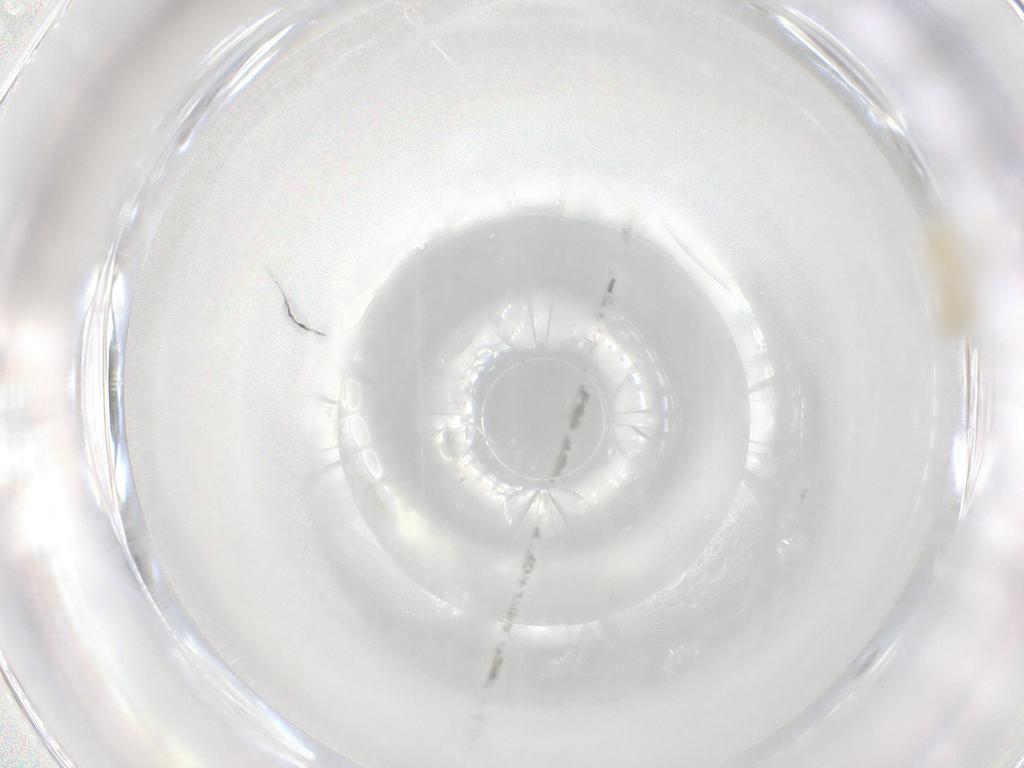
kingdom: Animalia
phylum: Arthropoda
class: Insecta
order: Diptera
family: Chironomidae
